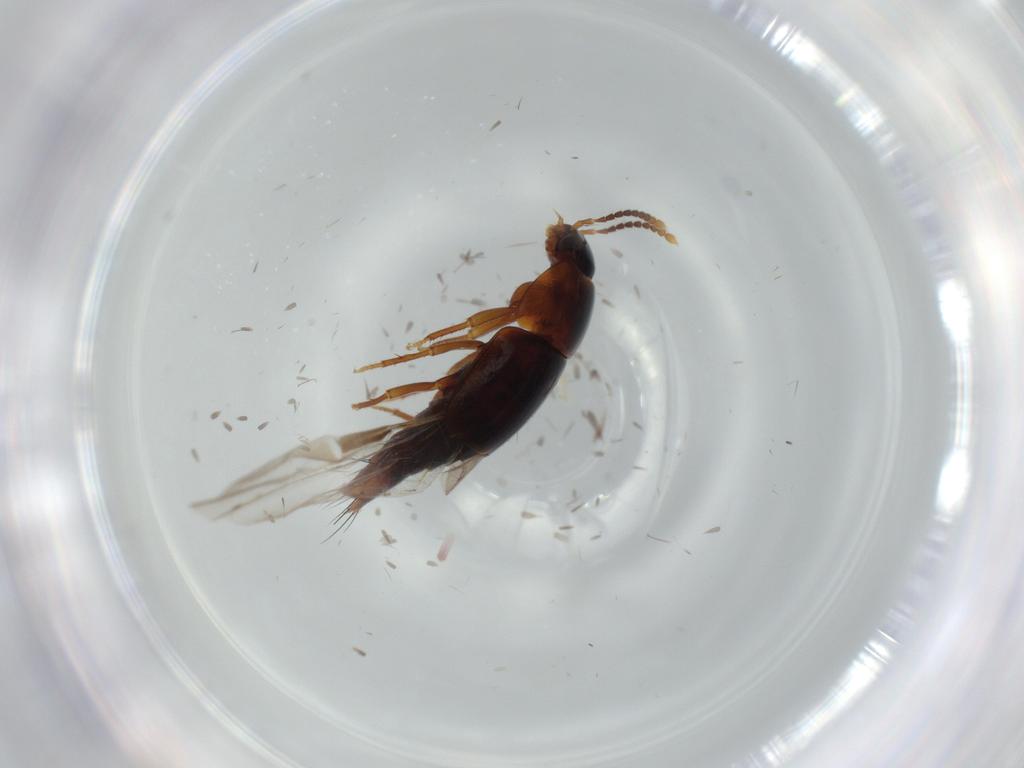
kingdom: Animalia
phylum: Arthropoda
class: Insecta
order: Coleoptera
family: Staphylinidae
